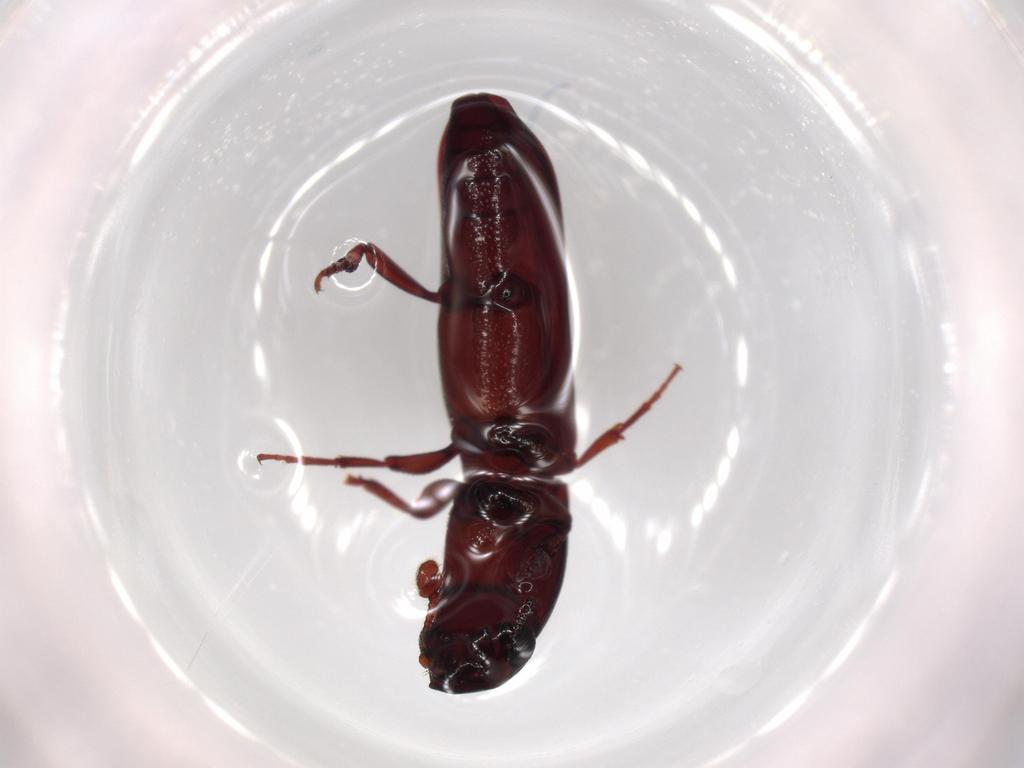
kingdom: Animalia
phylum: Arthropoda
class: Insecta
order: Coleoptera
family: Bothrideridae
